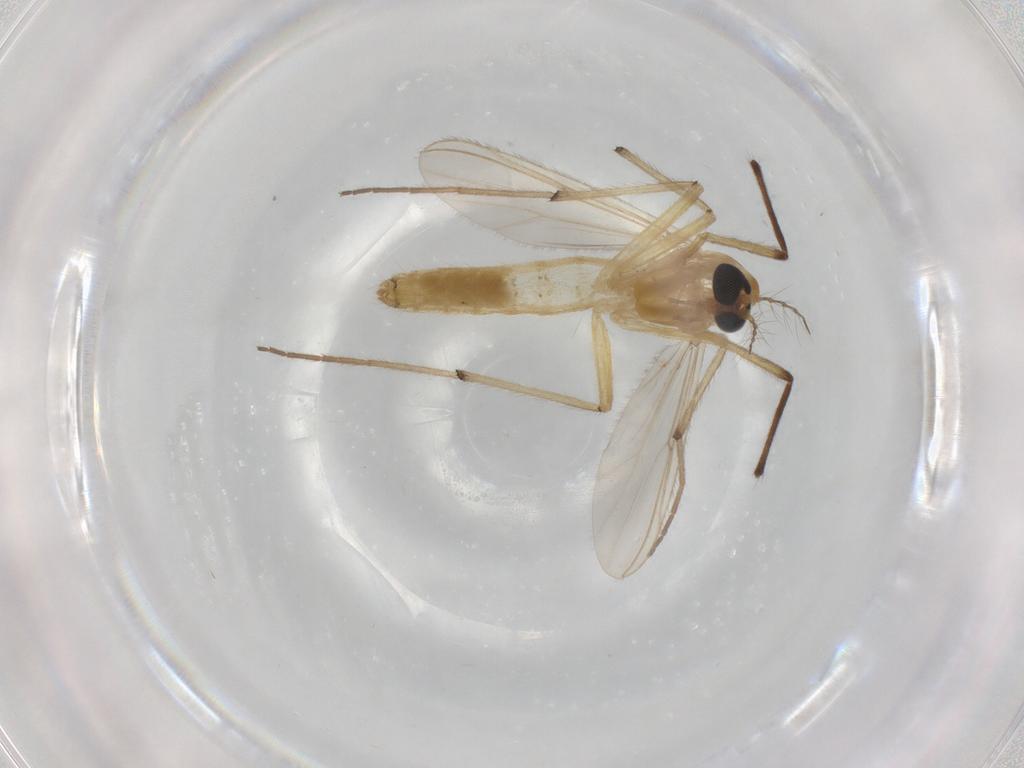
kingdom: Animalia
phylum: Arthropoda
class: Insecta
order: Diptera
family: Chironomidae
